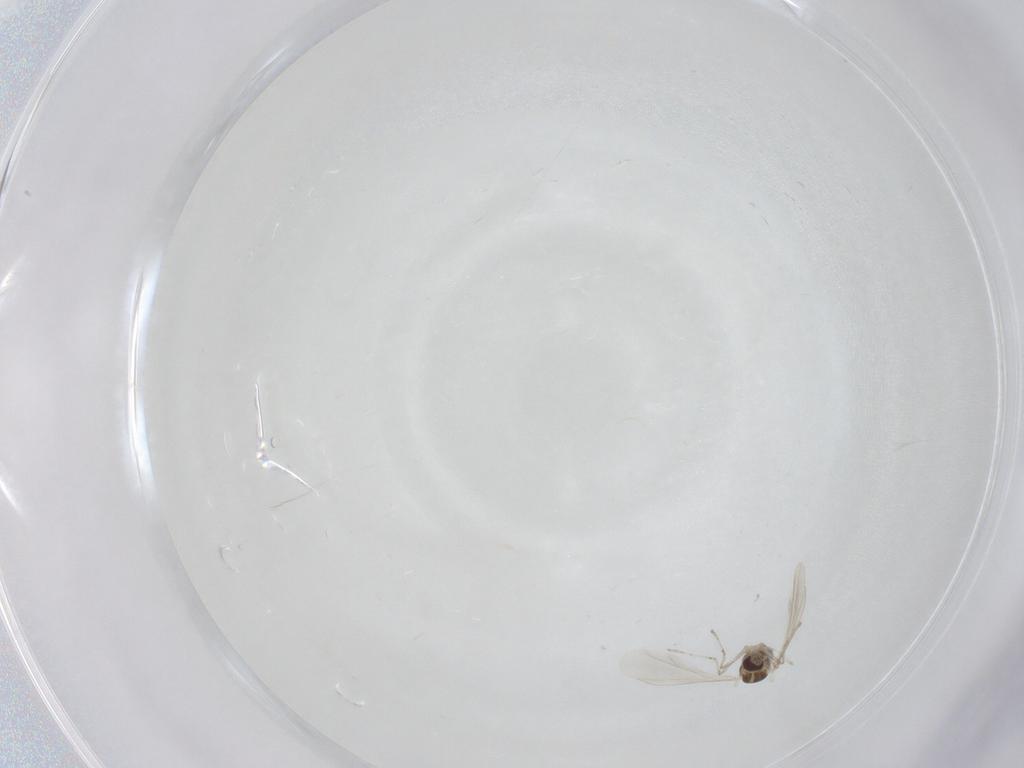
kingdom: Animalia
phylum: Arthropoda
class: Insecta
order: Diptera
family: Cecidomyiidae
